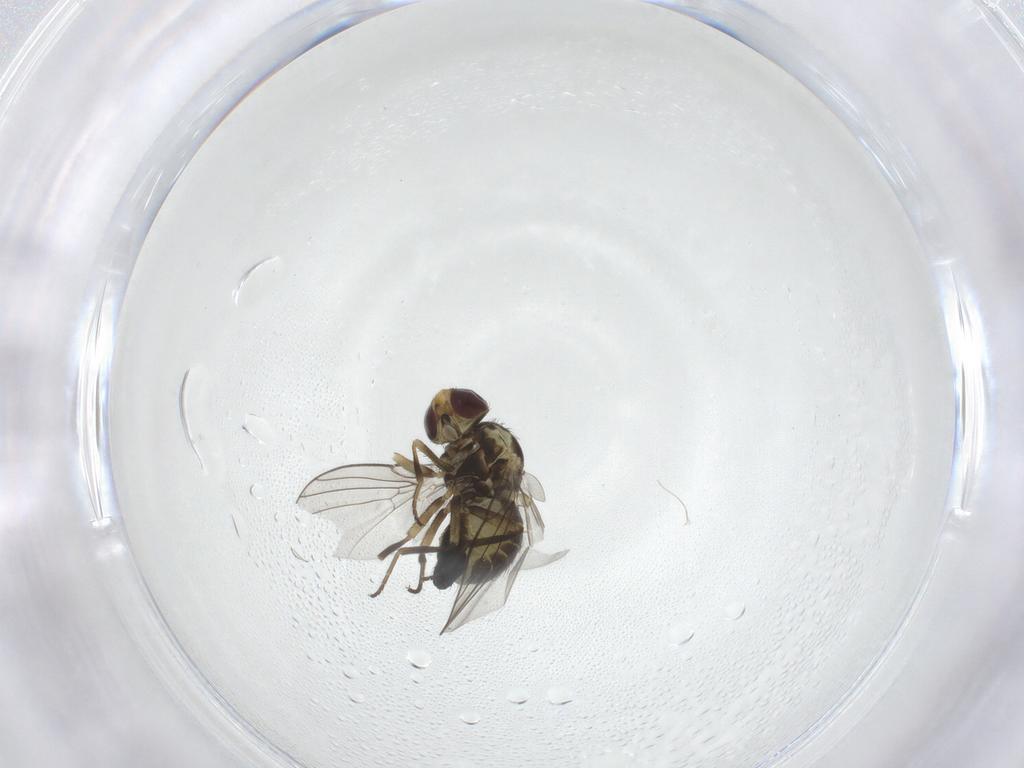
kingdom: Animalia
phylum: Arthropoda
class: Insecta
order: Diptera
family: Agromyzidae
